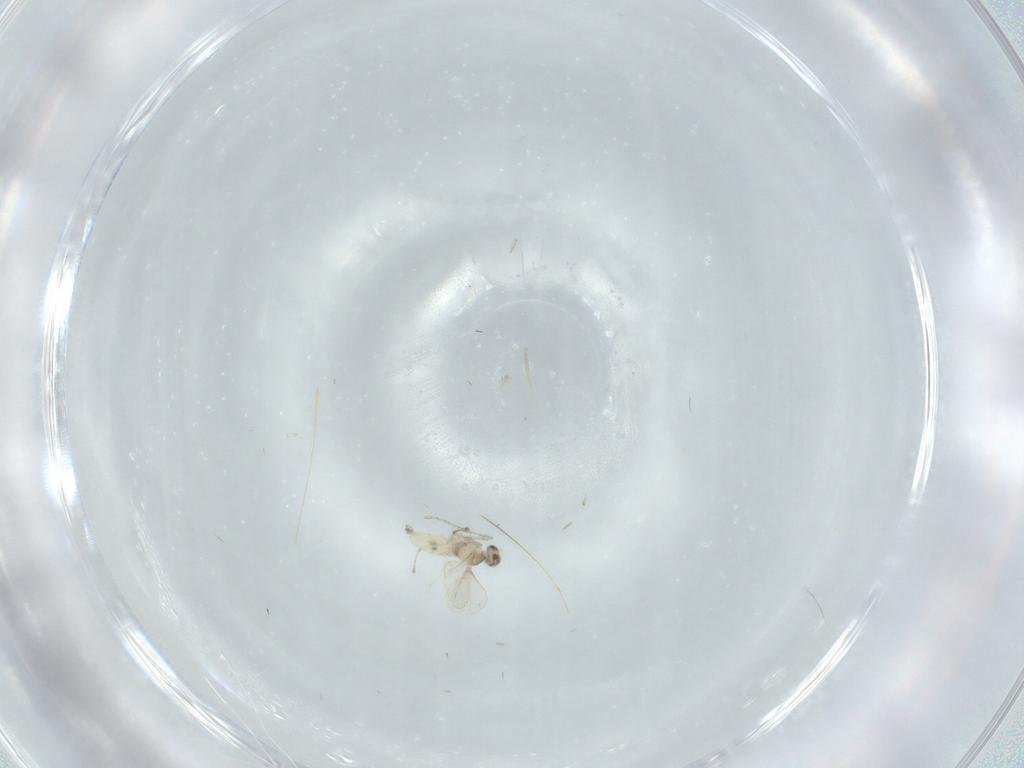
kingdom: Animalia
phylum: Arthropoda
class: Insecta
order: Diptera
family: Cecidomyiidae
